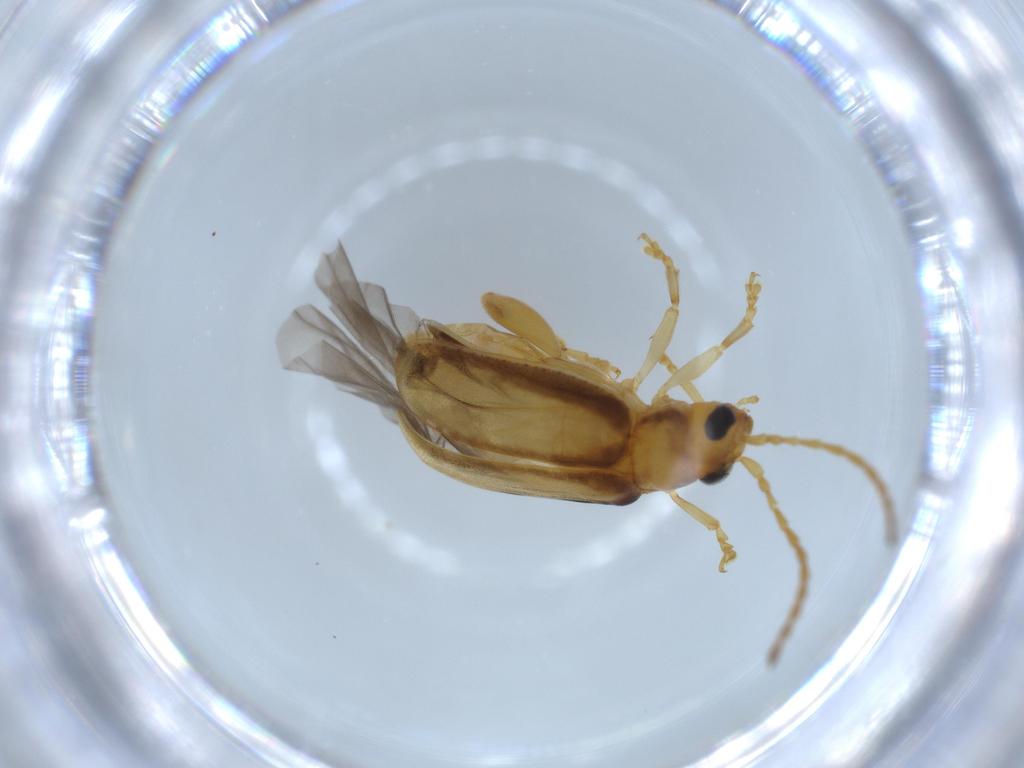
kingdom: Animalia
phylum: Arthropoda
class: Insecta
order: Coleoptera
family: Chrysomelidae
